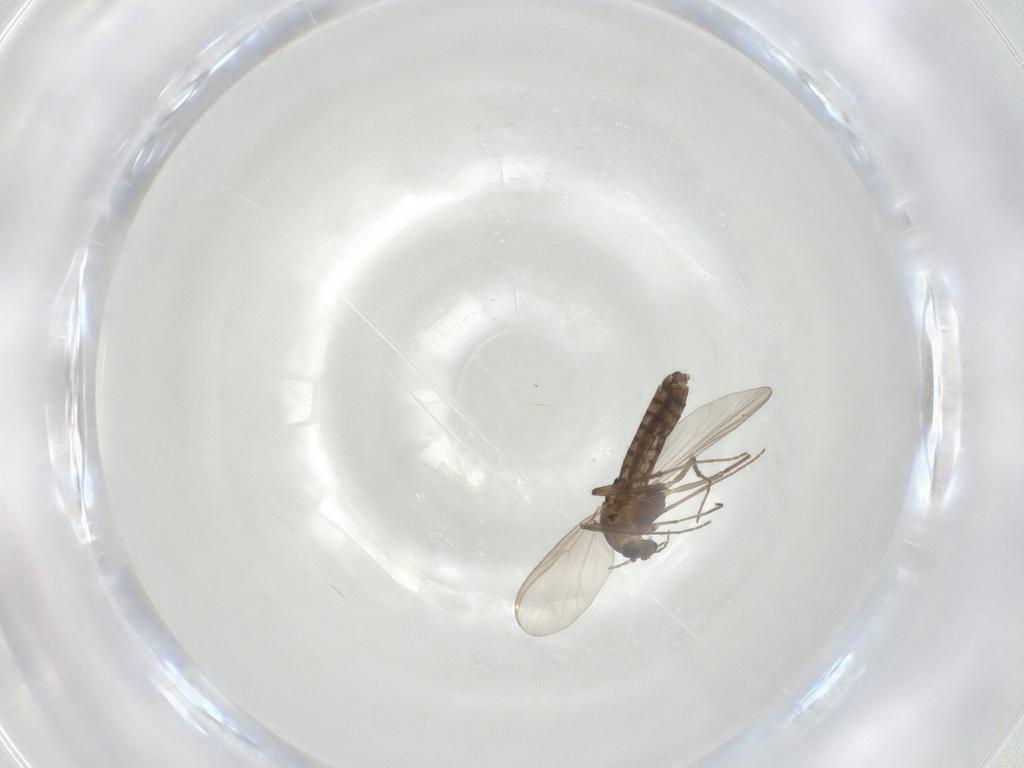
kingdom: Animalia
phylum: Arthropoda
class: Insecta
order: Diptera
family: Chironomidae
